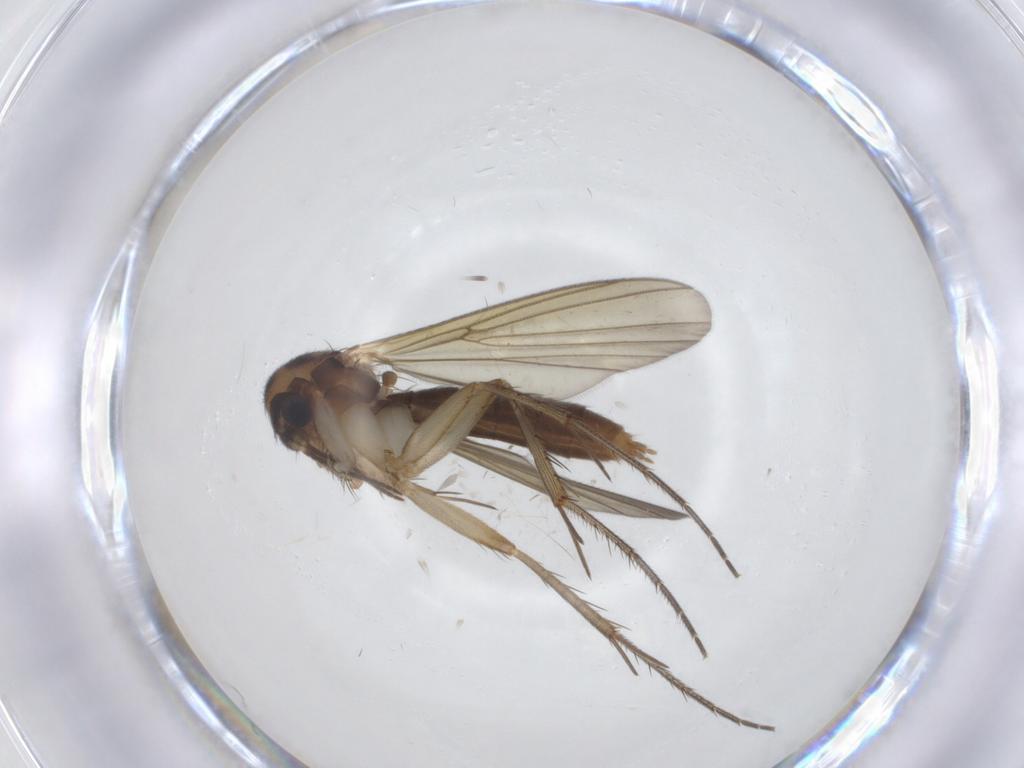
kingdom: Animalia
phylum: Arthropoda
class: Insecta
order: Diptera
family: Mycetophilidae
